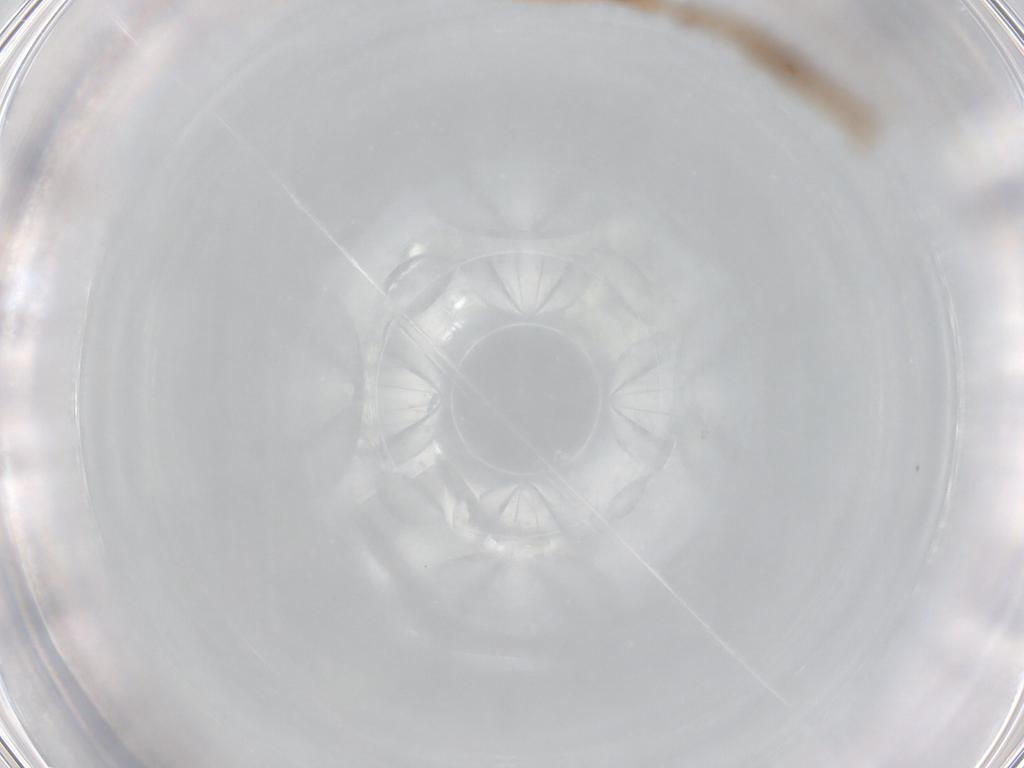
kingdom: Animalia
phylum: Arthropoda
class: Insecta
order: Diptera
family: Chironomidae
